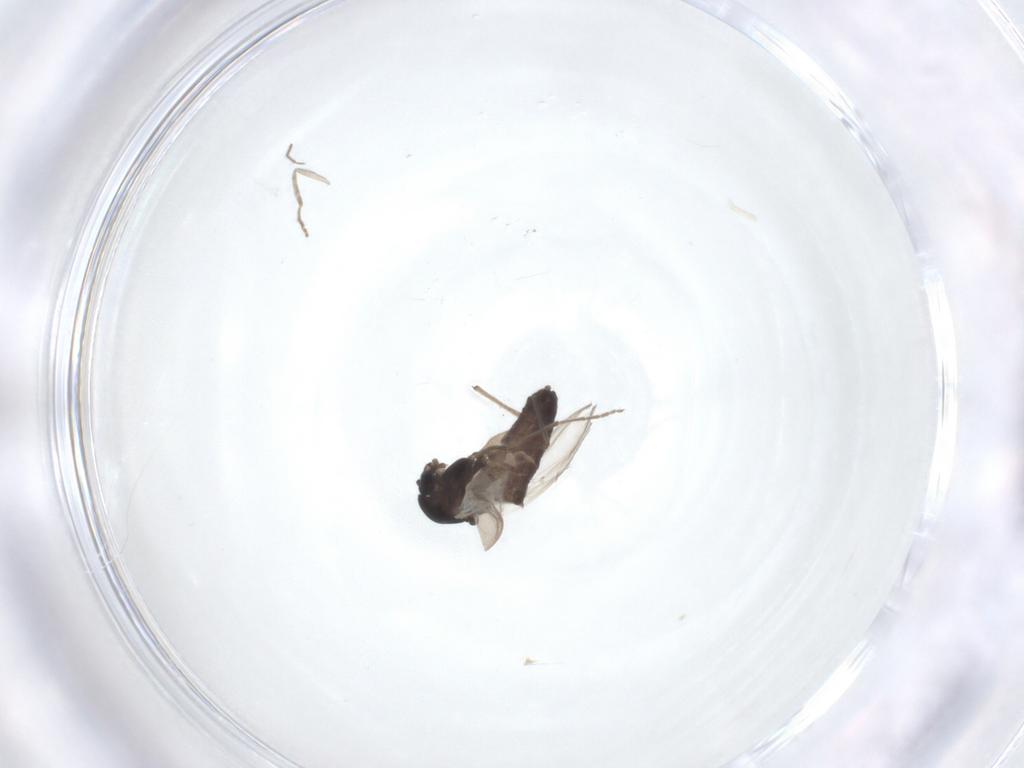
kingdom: Animalia
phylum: Arthropoda
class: Insecta
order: Diptera
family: Cecidomyiidae
